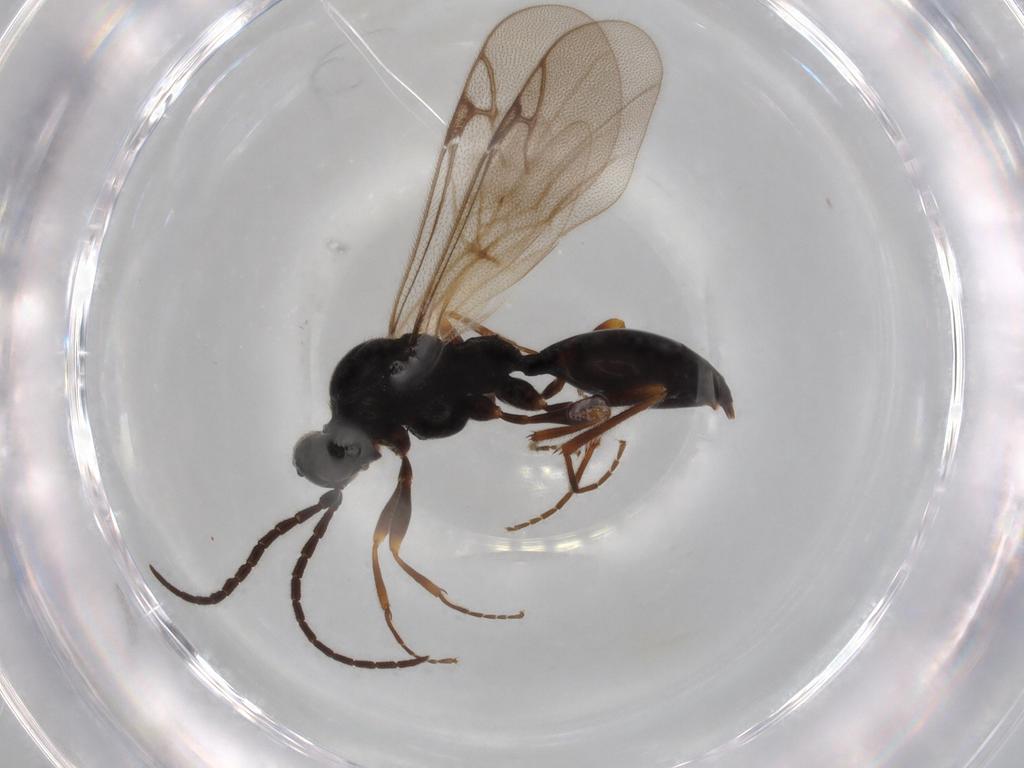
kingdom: Animalia
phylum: Arthropoda
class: Insecta
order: Hymenoptera
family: Proctotrupidae
